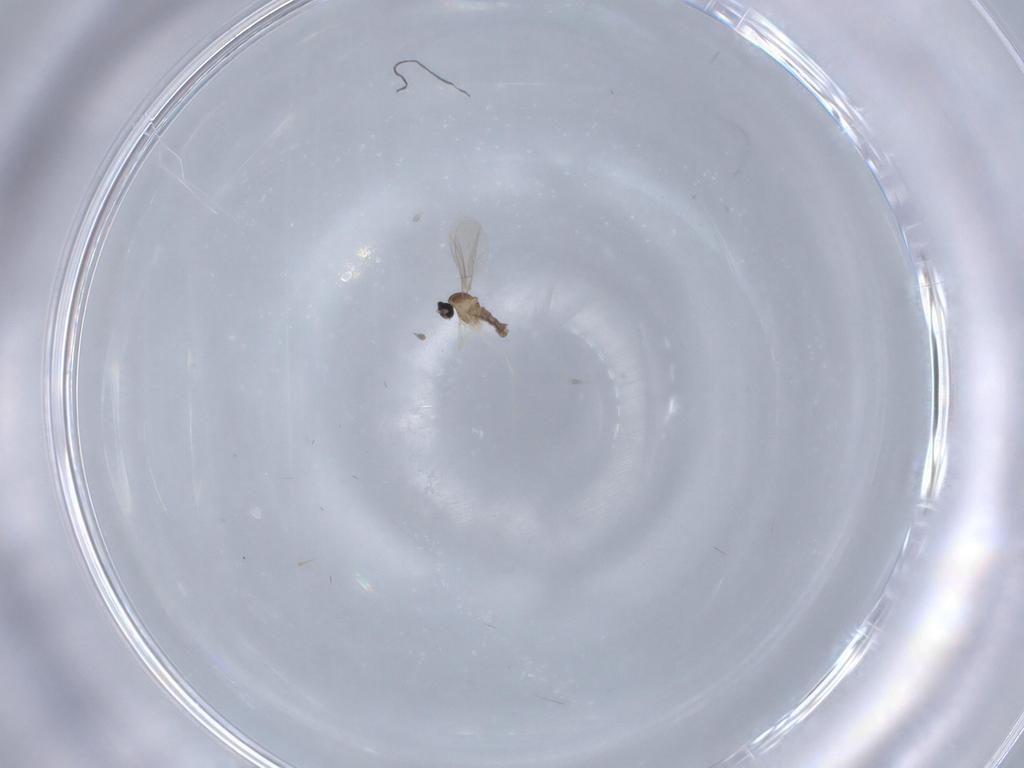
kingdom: Animalia
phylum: Arthropoda
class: Insecta
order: Diptera
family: Cecidomyiidae
